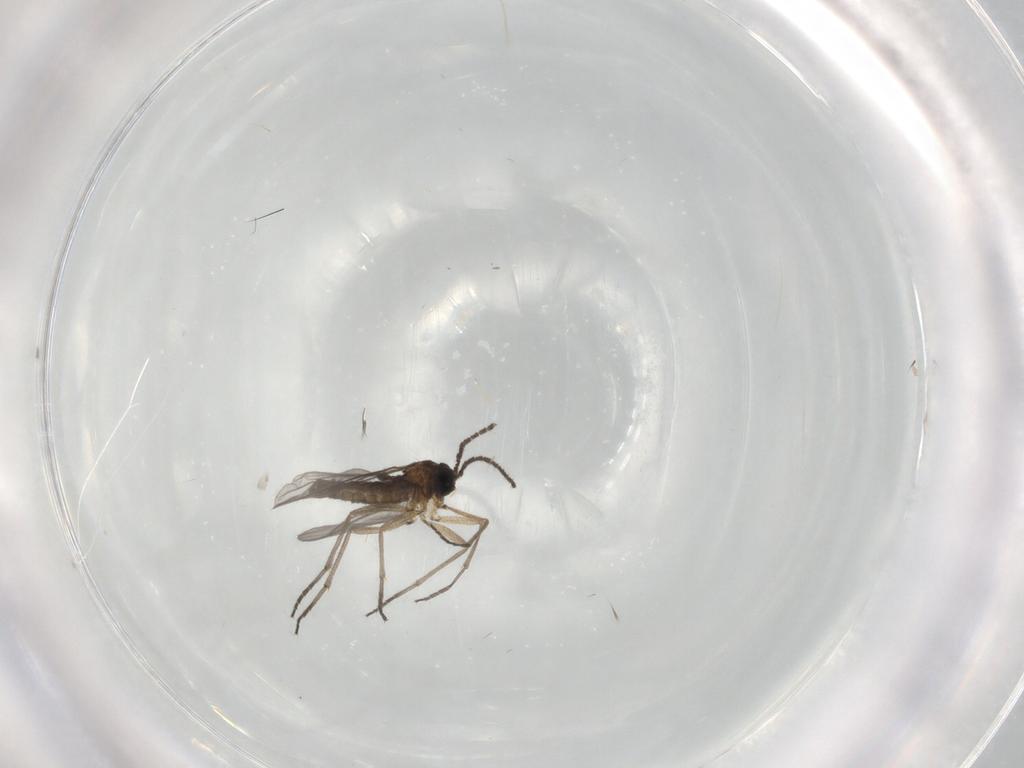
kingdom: Animalia
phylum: Arthropoda
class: Insecta
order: Diptera
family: Sciaridae
